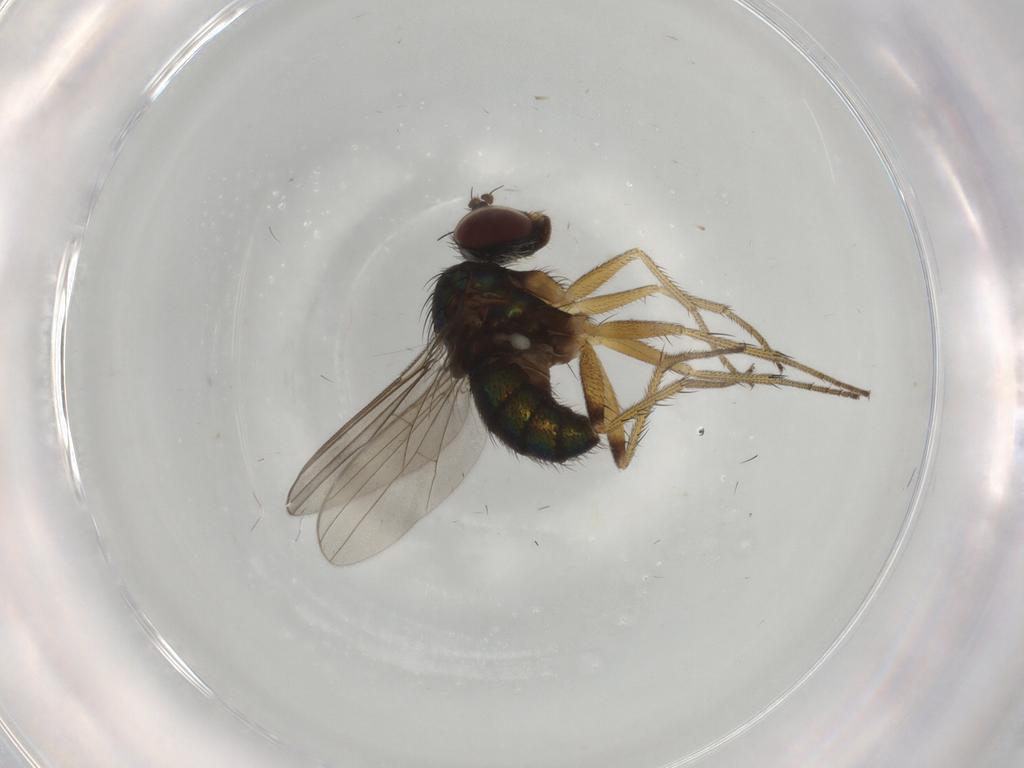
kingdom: Animalia
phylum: Arthropoda
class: Insecta
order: Diptera
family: Dolichopodidae
